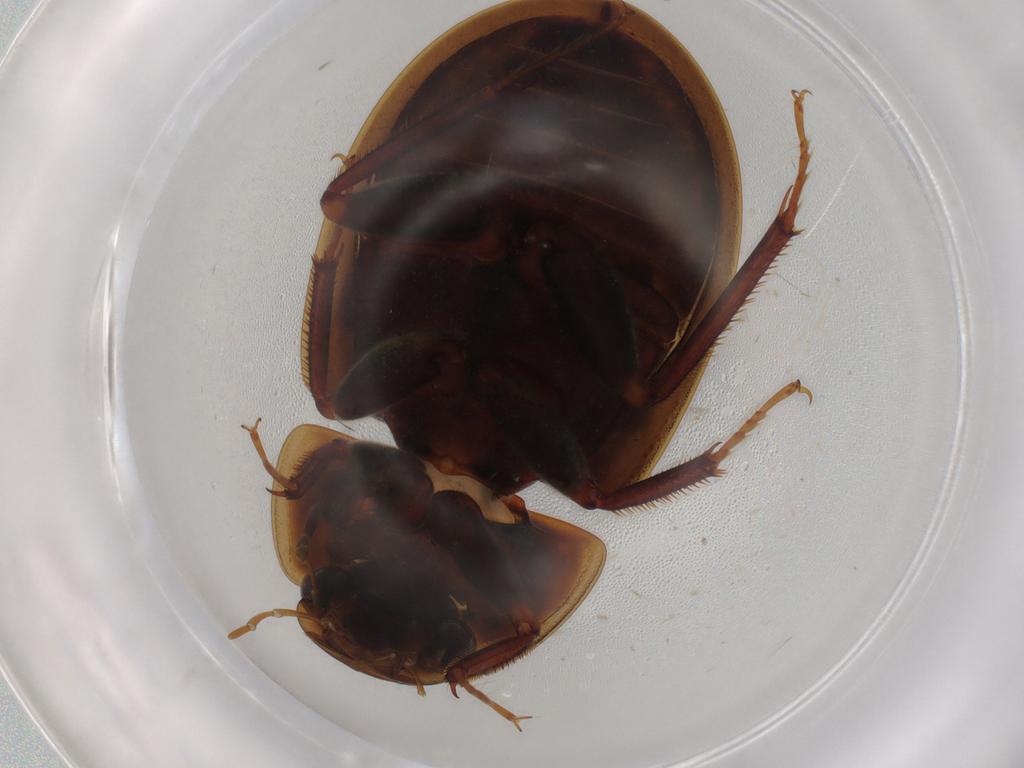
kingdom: Animalia
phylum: Arthropoda
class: Insecta
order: Coleoptera
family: Hydrophilidae
